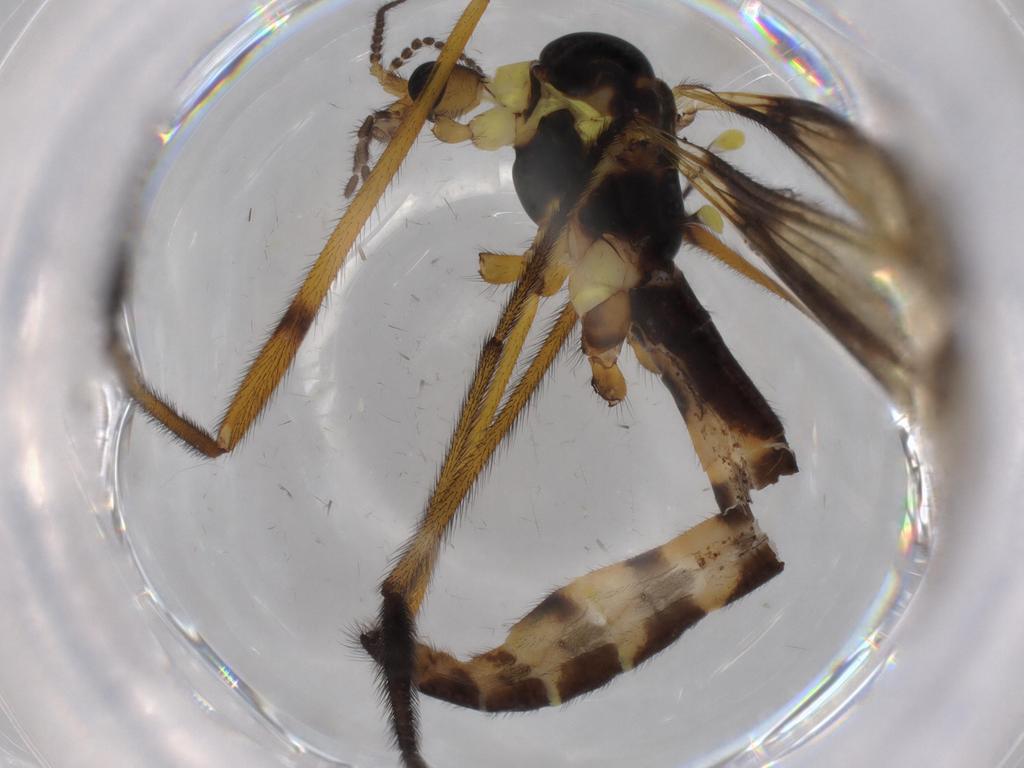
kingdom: Animalia
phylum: Arthropoda
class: Insecta
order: Diptera
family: Limoniidae
